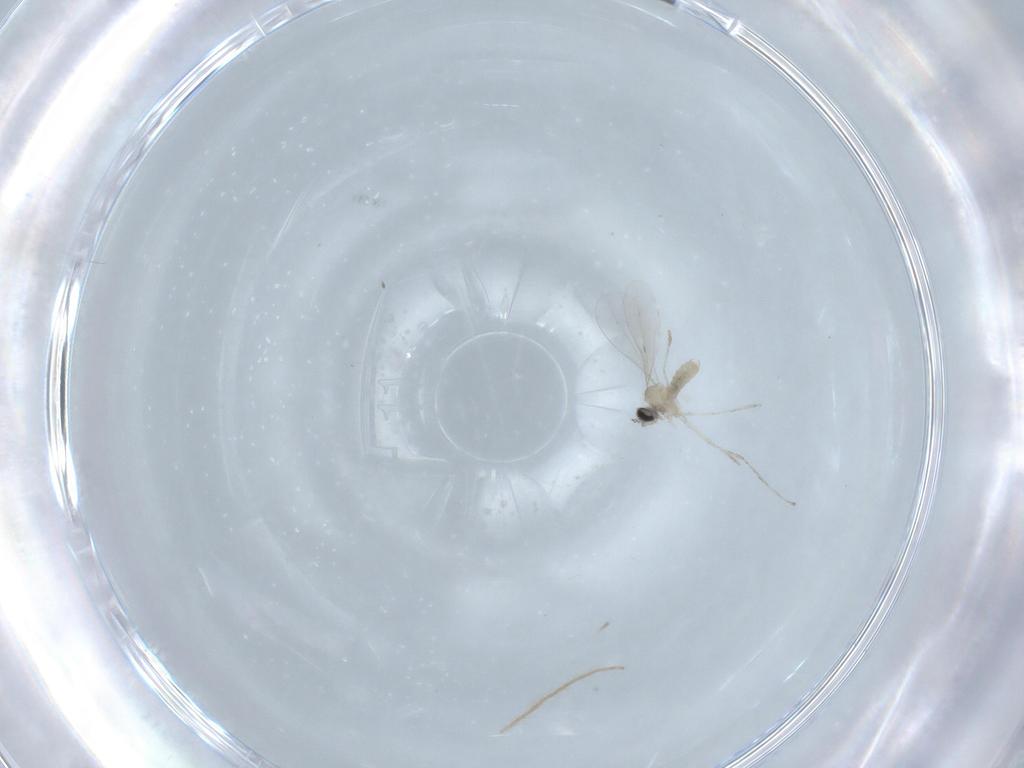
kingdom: Animalia
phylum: Arthropoda
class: Insecta
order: Diptera
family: Chironomidae
